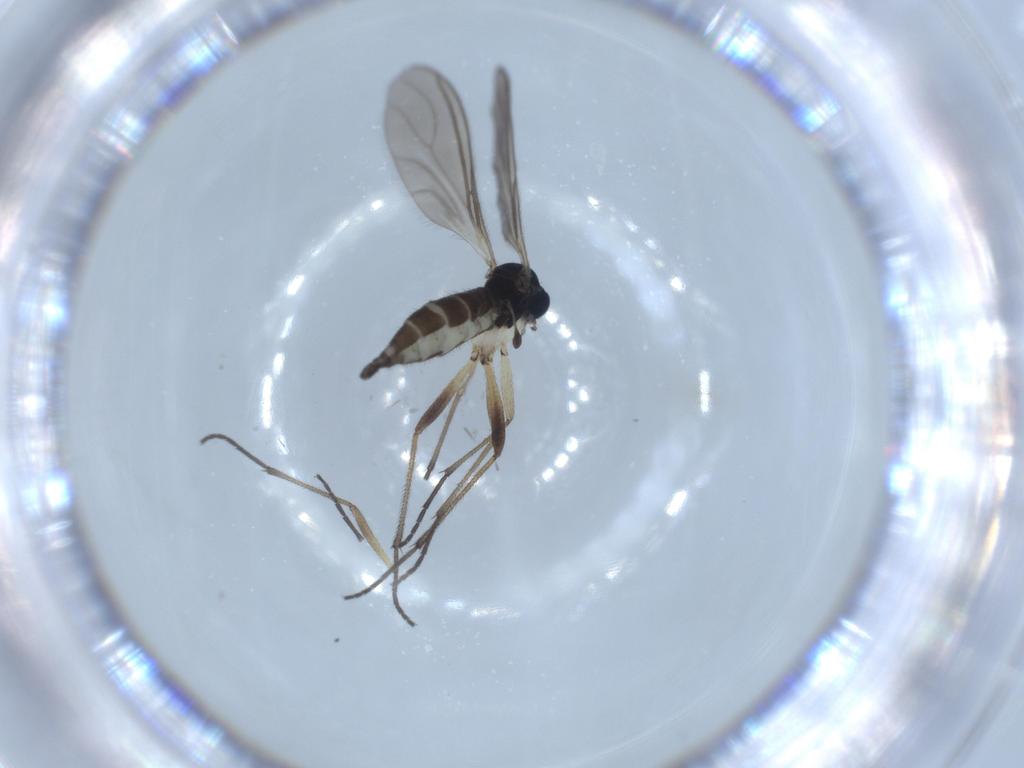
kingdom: Animalia
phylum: Arthropoda
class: Insecta
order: Diptera
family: Sciaridae
